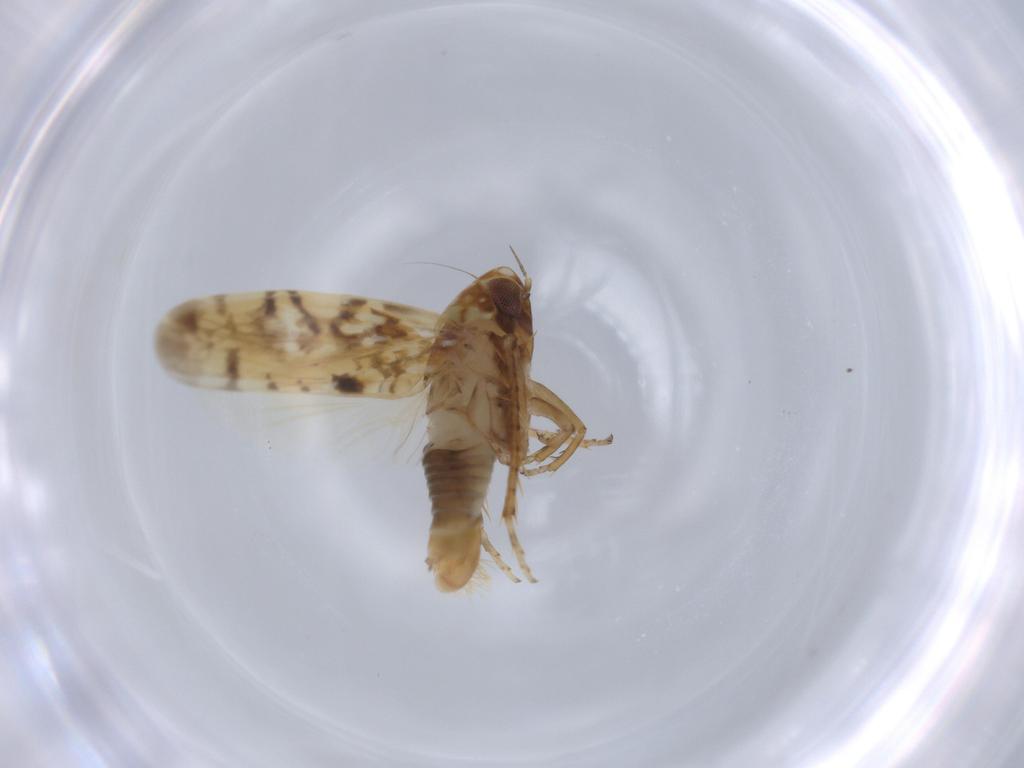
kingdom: Animalia
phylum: Arthropoda
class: Insecta
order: Hemiptera
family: Cicadellidae
